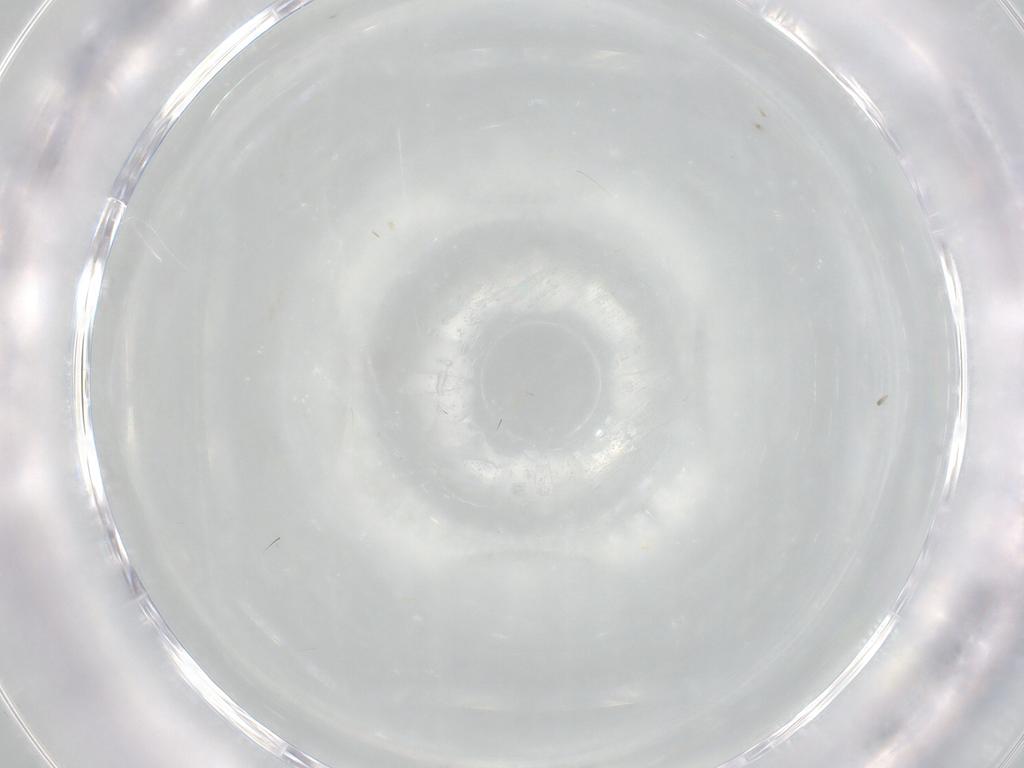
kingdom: Animalia
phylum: Arthropoda
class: Collembola
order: Entomobryomorpha
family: Entomobryidae
